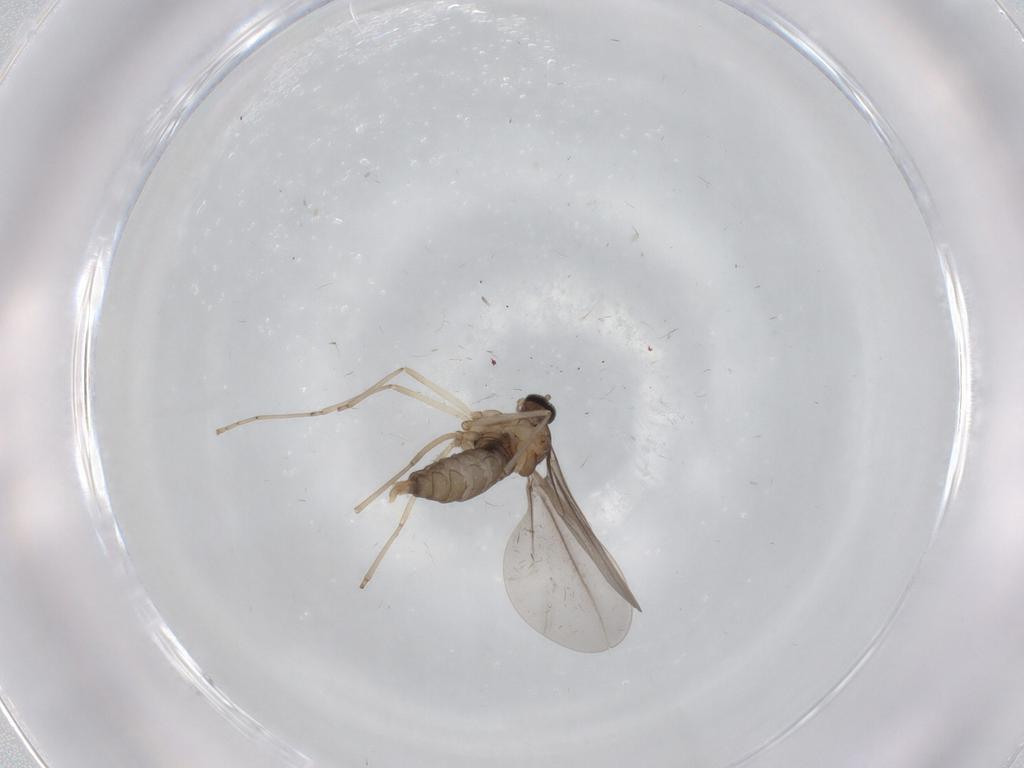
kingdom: Animalia
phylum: Arthropoda
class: Insecta
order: Diptera
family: Cecidomyiidae
